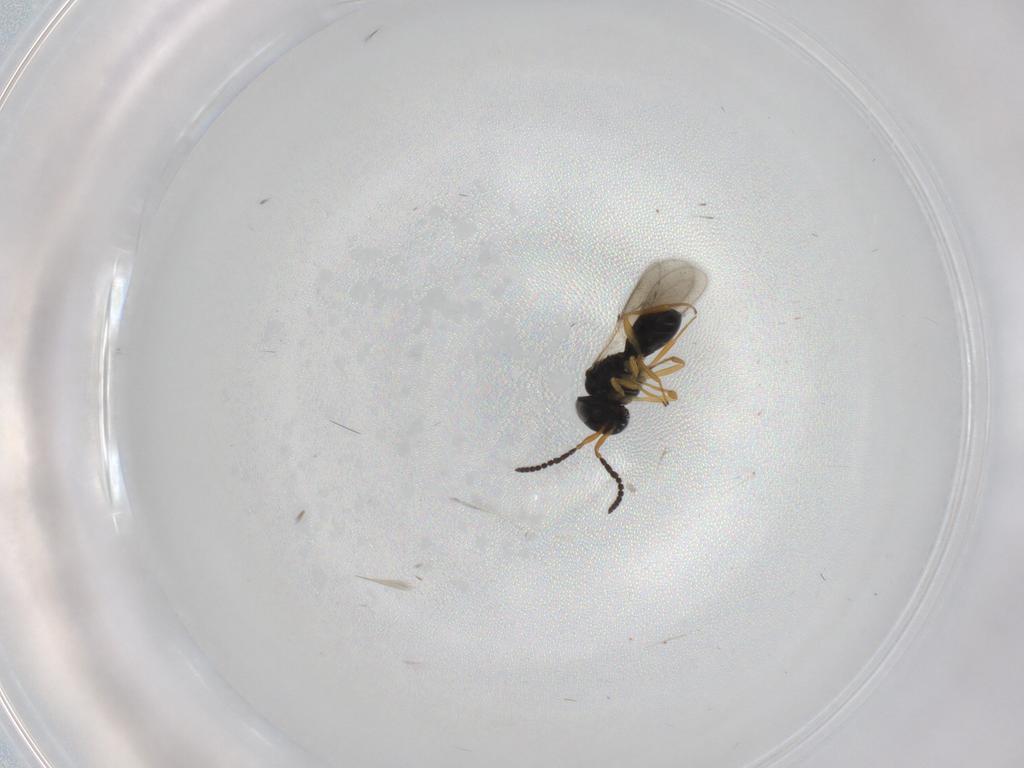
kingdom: Animalia
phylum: Arthropoda
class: Insecta
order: Hymenoptera
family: Scelionidae
